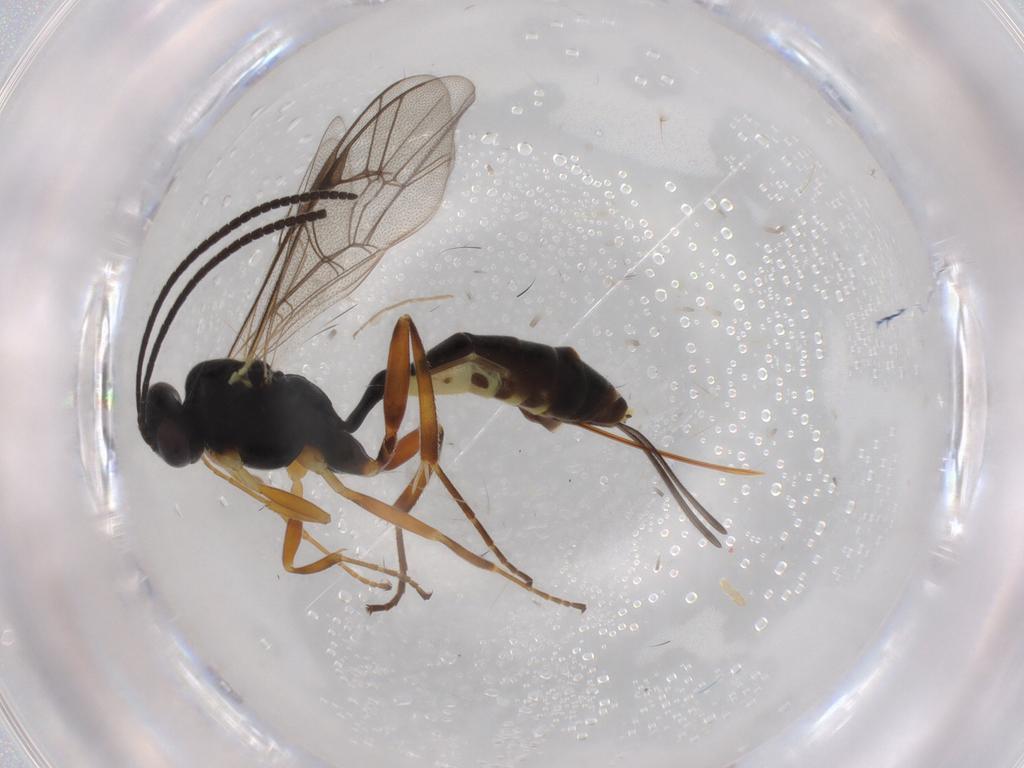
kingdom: Animalia
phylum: Arthropoda
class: Insecta
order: Hymenoptera
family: Ichneumonidae
